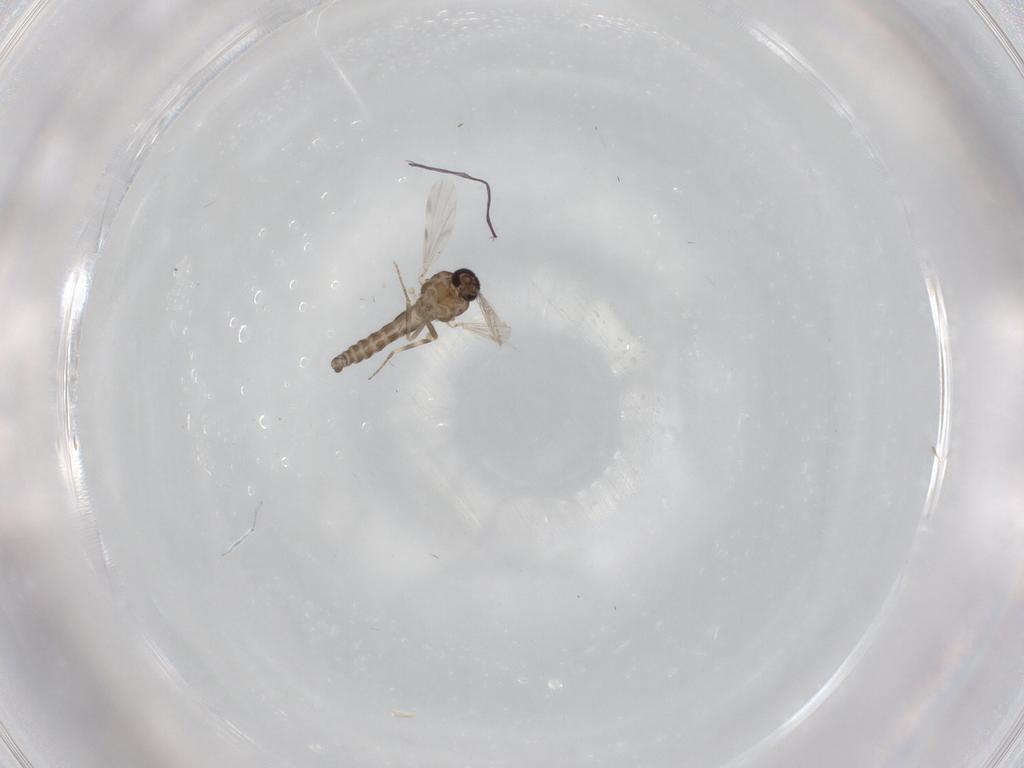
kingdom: Animalia
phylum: Arthropoda
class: Insecta
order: Diptera
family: Ceratopogonidae
